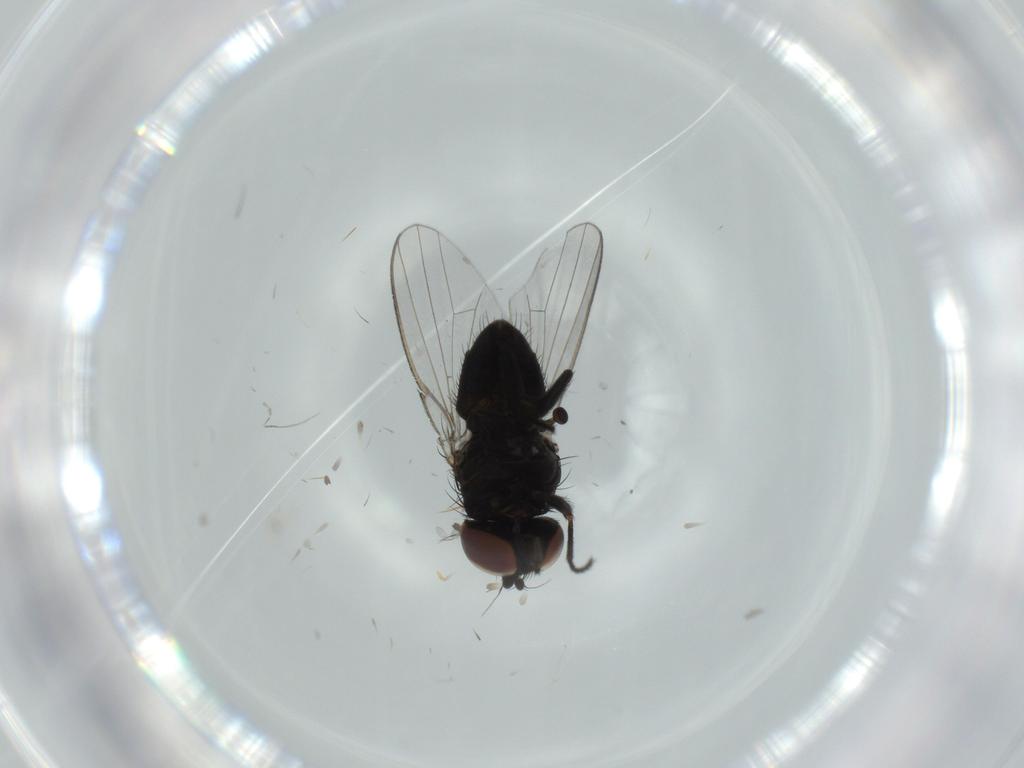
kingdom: Animalia
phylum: Arthropoda
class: Insecta
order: Diptera
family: Milichiidae
